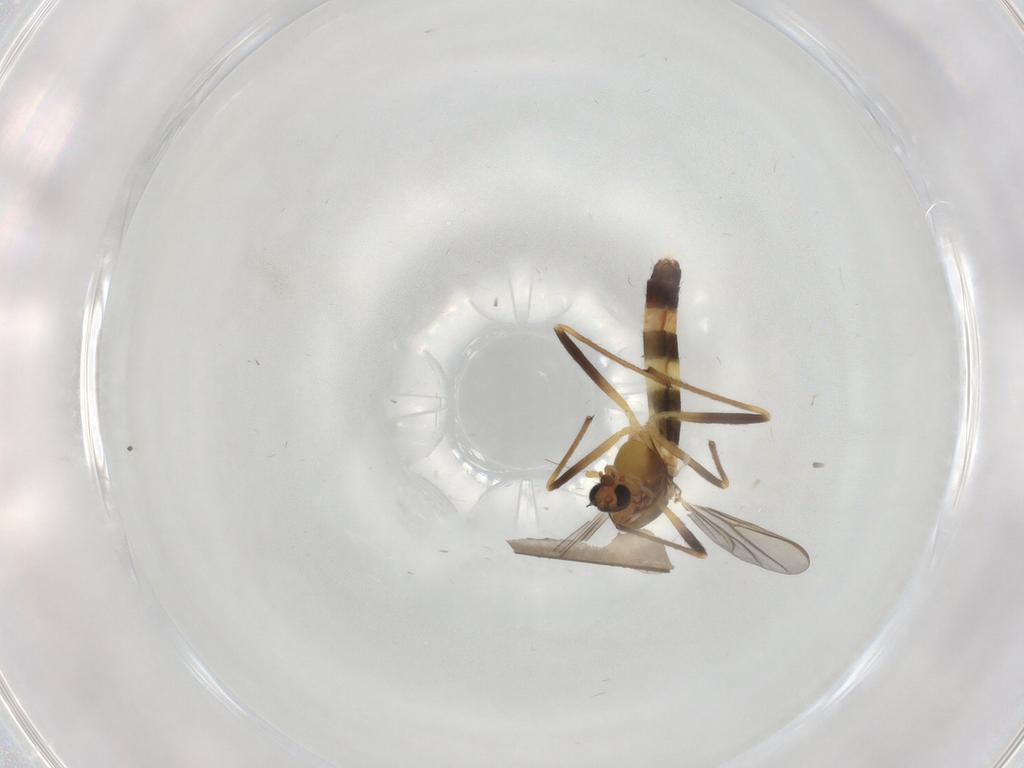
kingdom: Animalia
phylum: Arthropoda
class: Insecta
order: Diptera
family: Chironomidae
